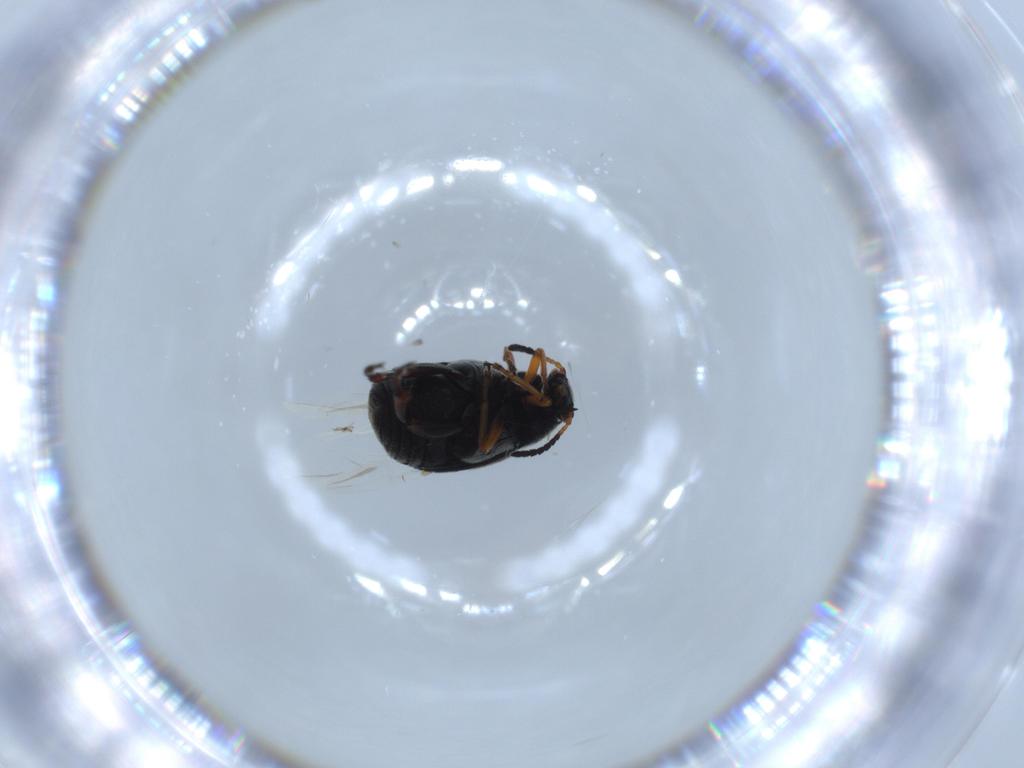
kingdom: Animalia
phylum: Arthropoda
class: Insecta
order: Coleoptera
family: Chrysomelidae
